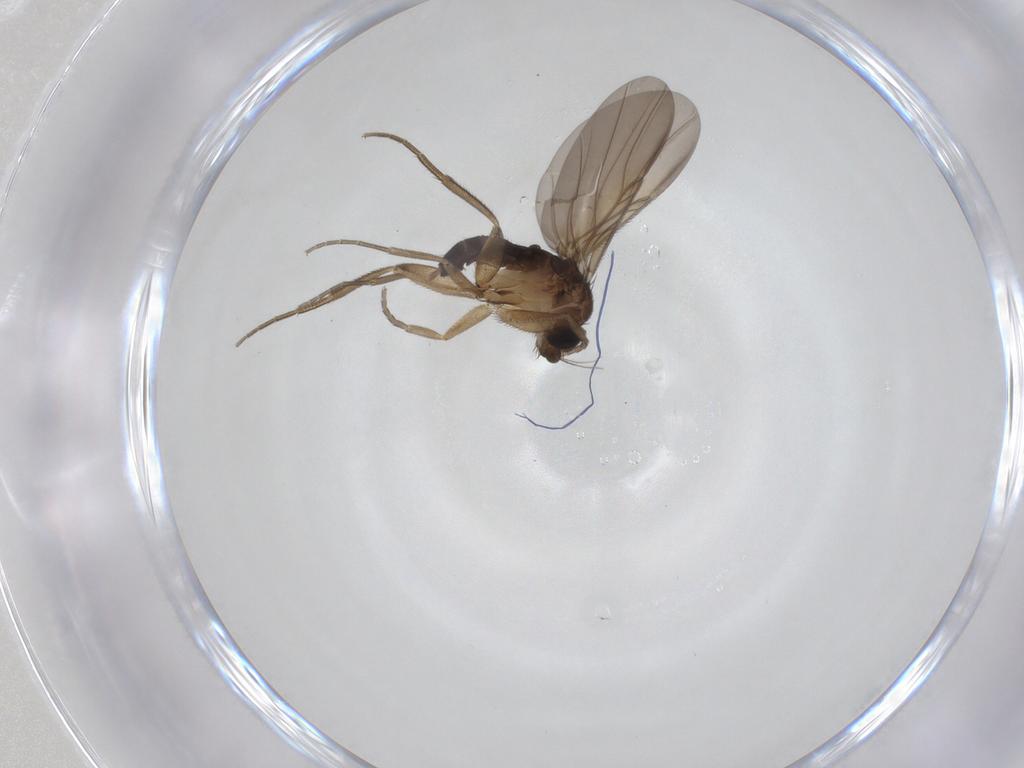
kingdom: Animalia
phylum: Arthropoda
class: Insecta
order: Diptera
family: Phoridae
